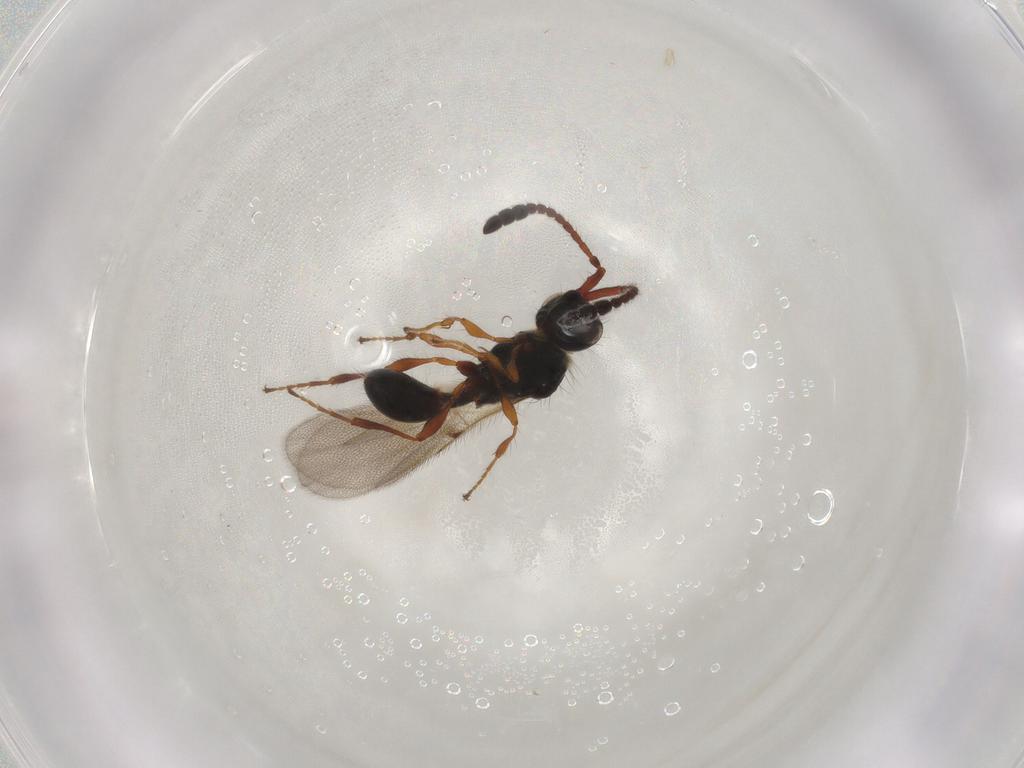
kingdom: Animalia
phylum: Arthropoda
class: Insecta
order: Hymenoptera
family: Diapriidae
